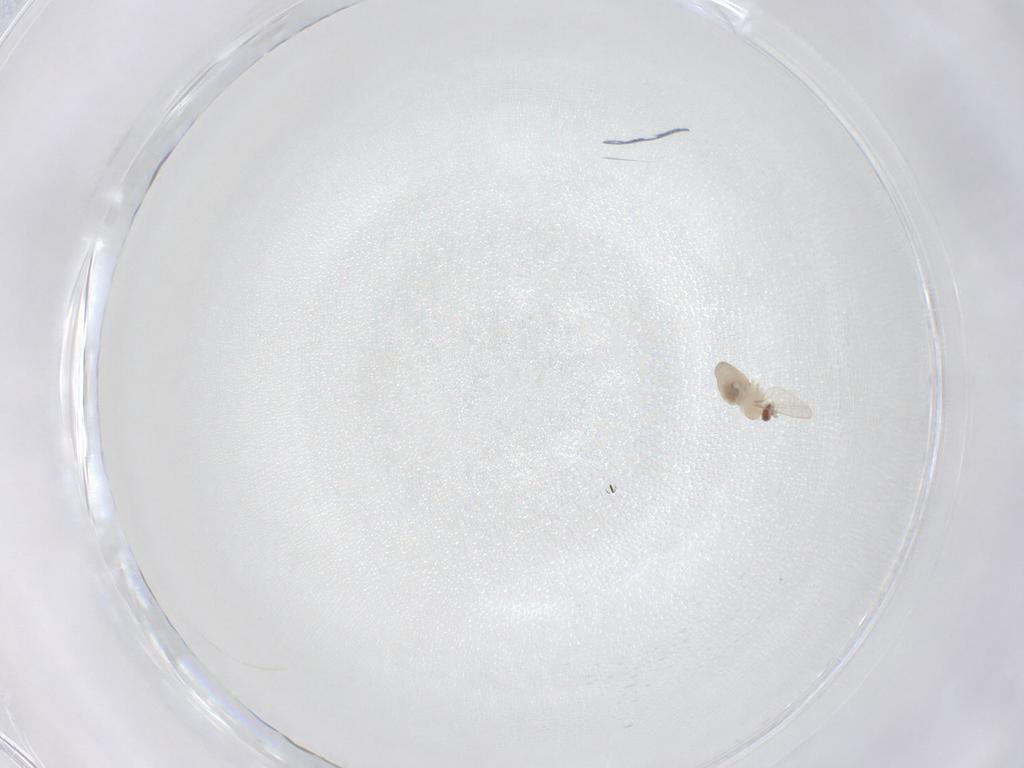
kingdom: Animalia
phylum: Arthropoda
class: Insecta
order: Diptera
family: Cecidomyiidae
